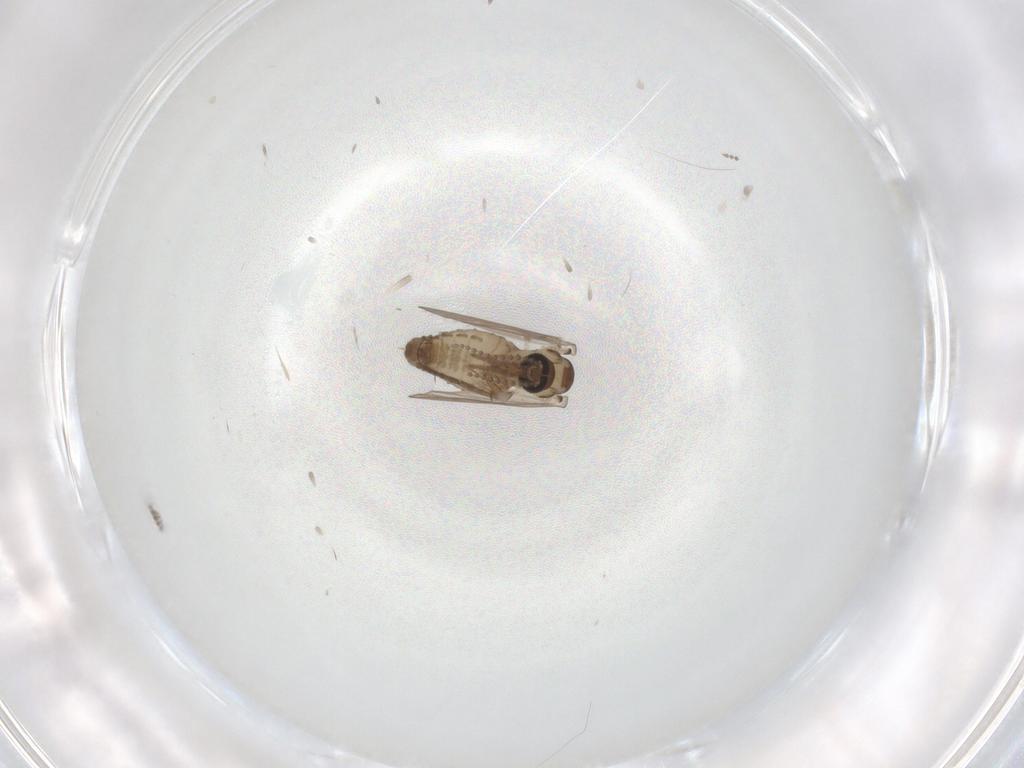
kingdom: Animalia
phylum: Arthropoda
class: Insecta
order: Diptera
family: Psychodidae
